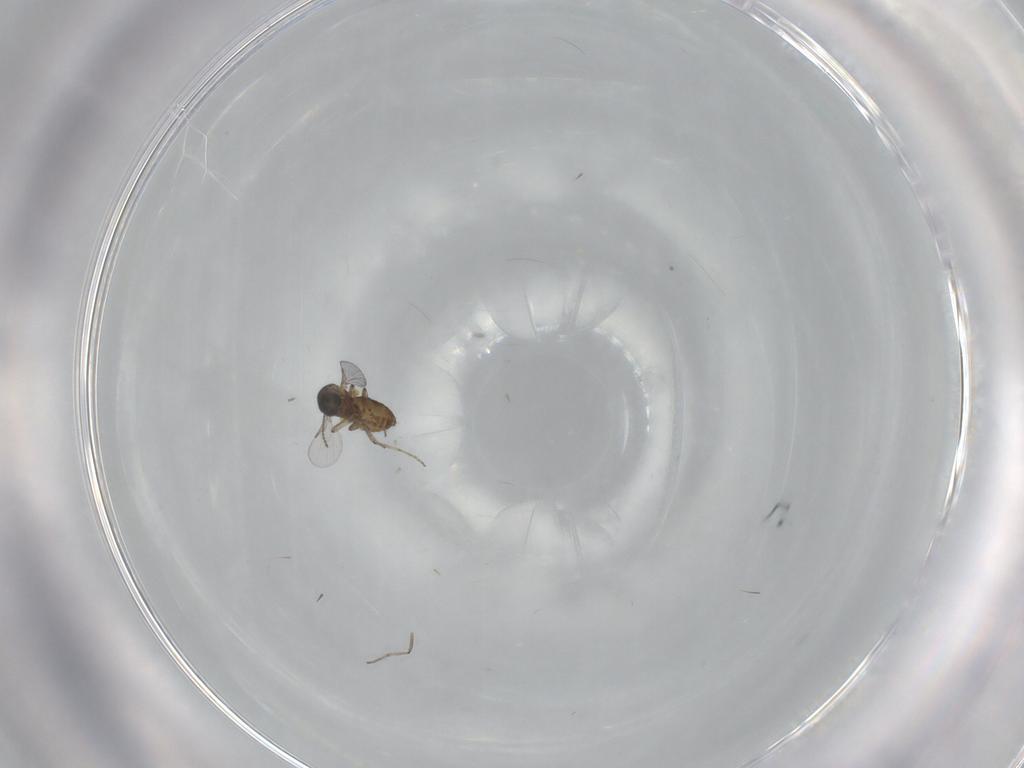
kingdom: Animalia
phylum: Arthropoda
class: Insecta
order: Diptera
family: Ceratopogonidae
